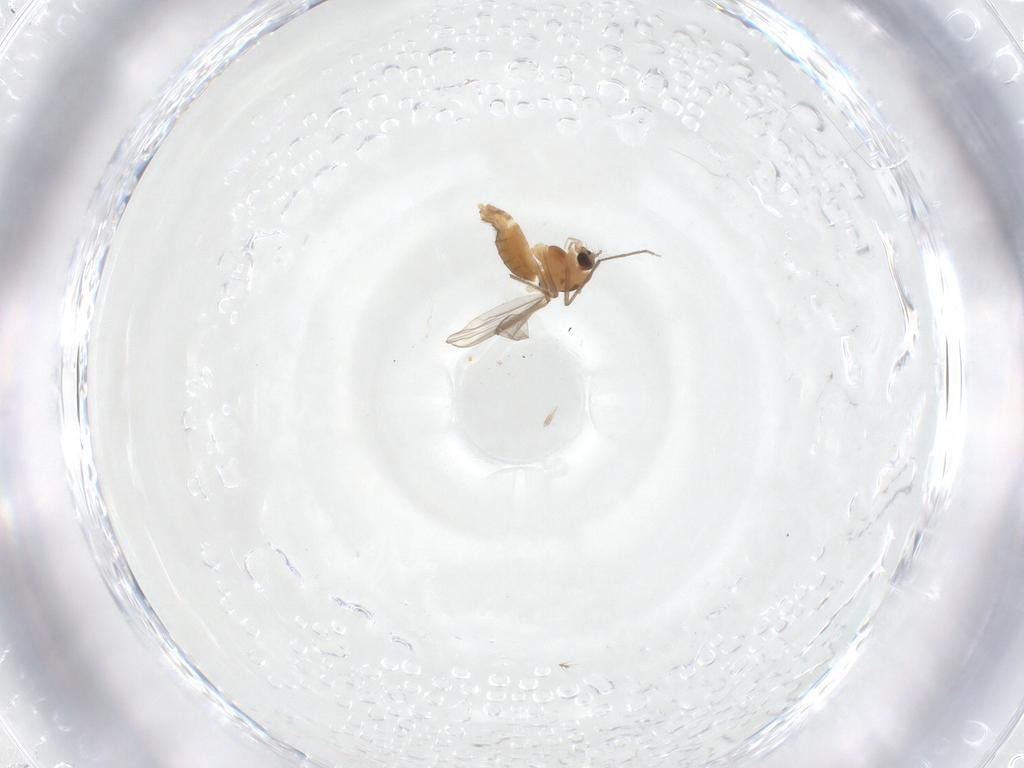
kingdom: Animalia
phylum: Arthropoda
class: Insecta
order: Diptera
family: Chironomidae
